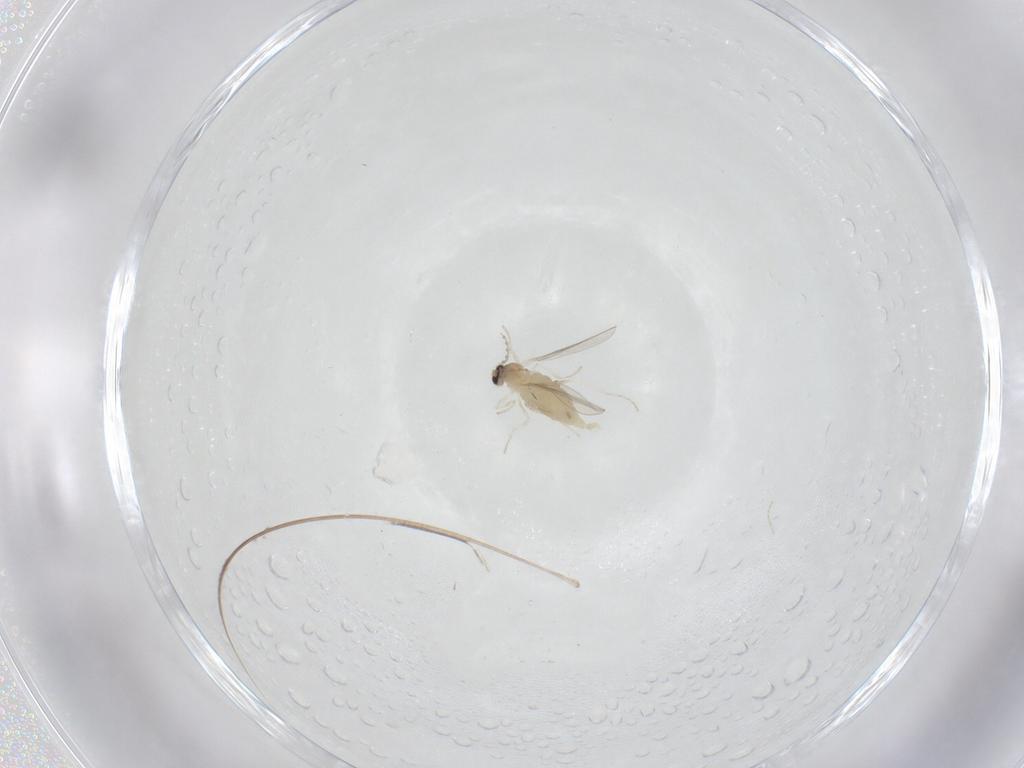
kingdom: Animalia
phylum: Arthropoda
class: Insecta
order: Diptera
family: Cecidomyiidae
